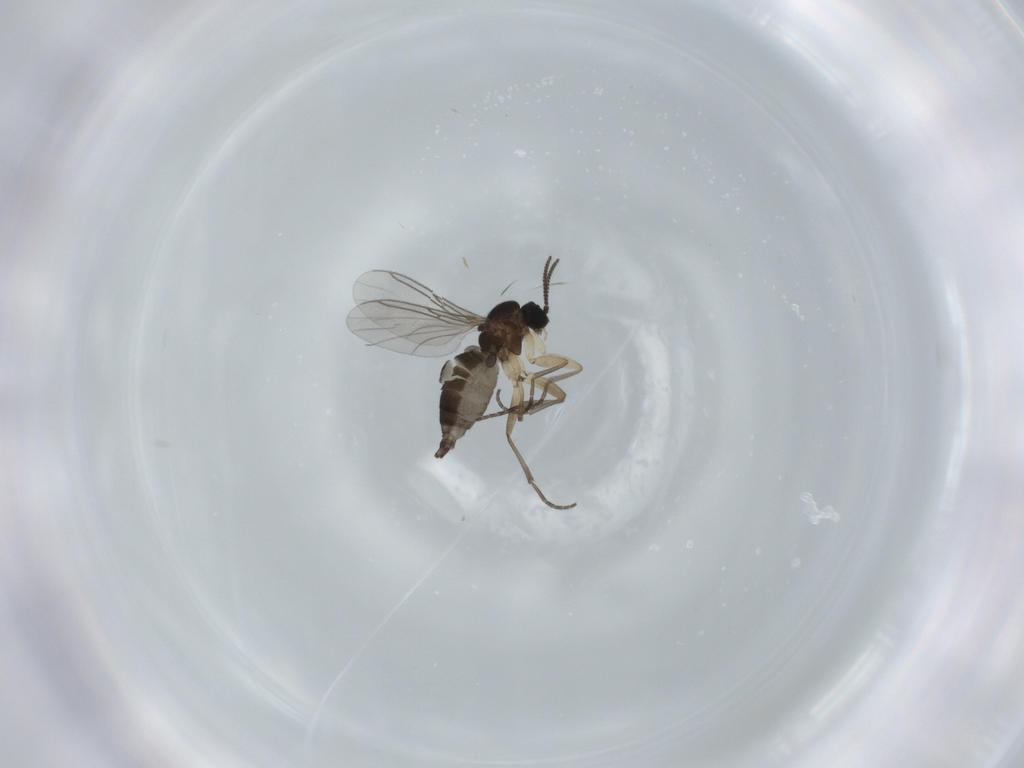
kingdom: Animalia
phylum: Arthropoda
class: Insecta
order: Diptera
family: Sciaridae
